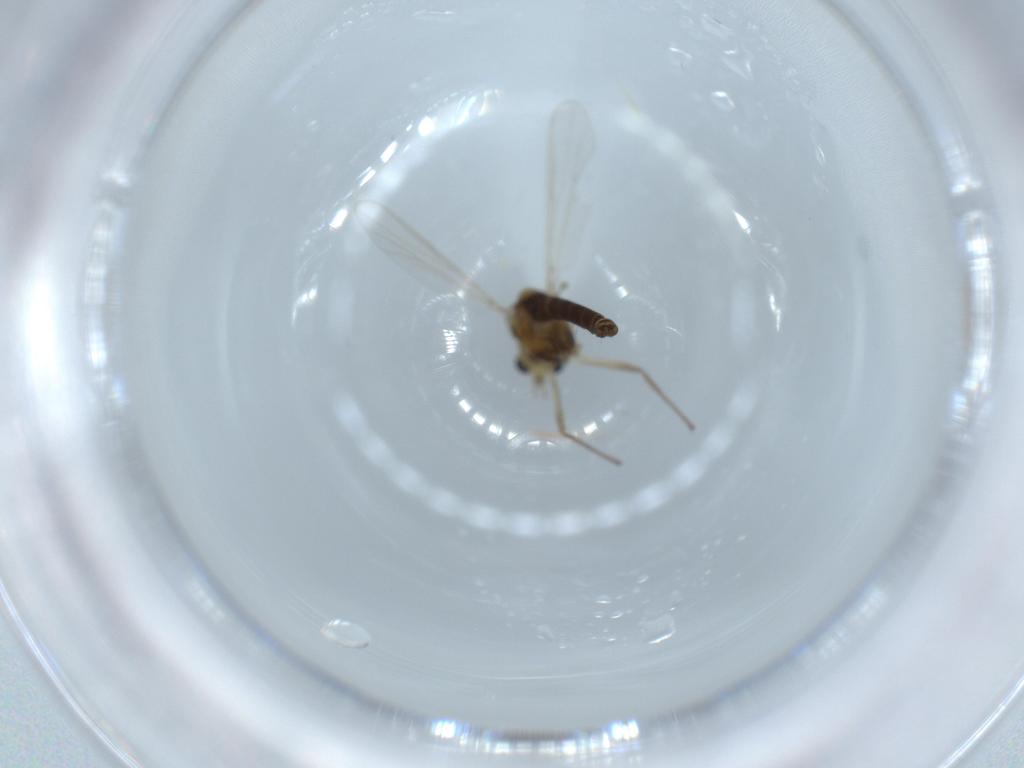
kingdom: Animalia
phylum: Arthropoda
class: Insecta
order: Diptera
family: Chironomidae
